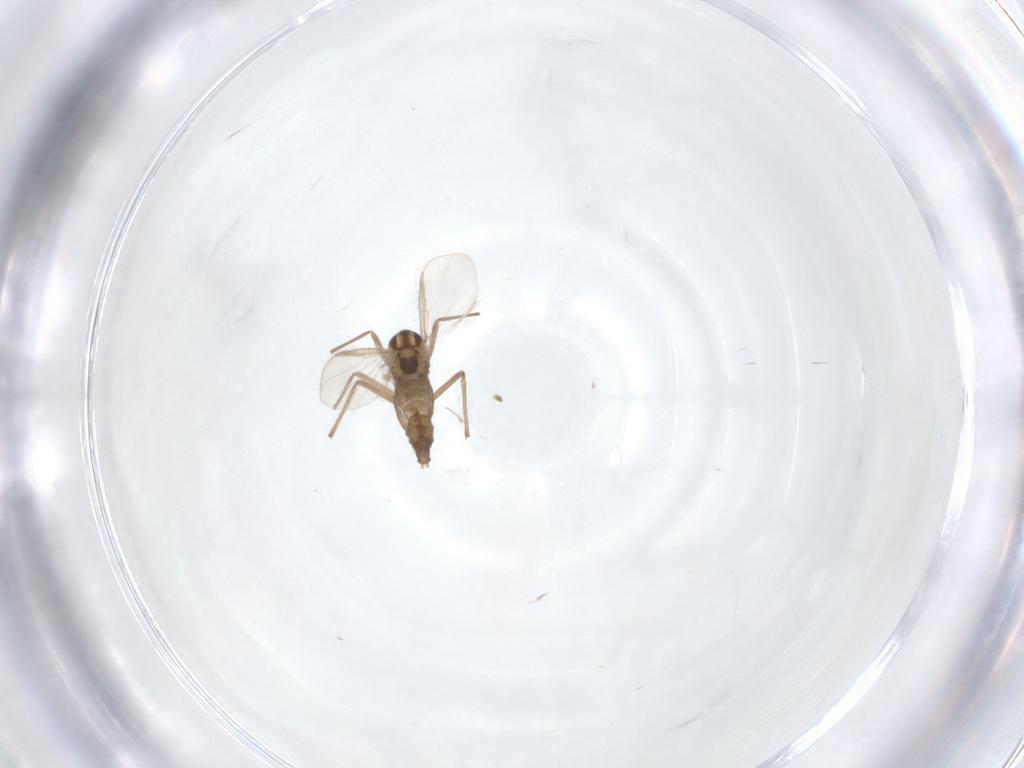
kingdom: Animalia
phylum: Arthropoda
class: Insecta
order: Diptera
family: Chironomidae
